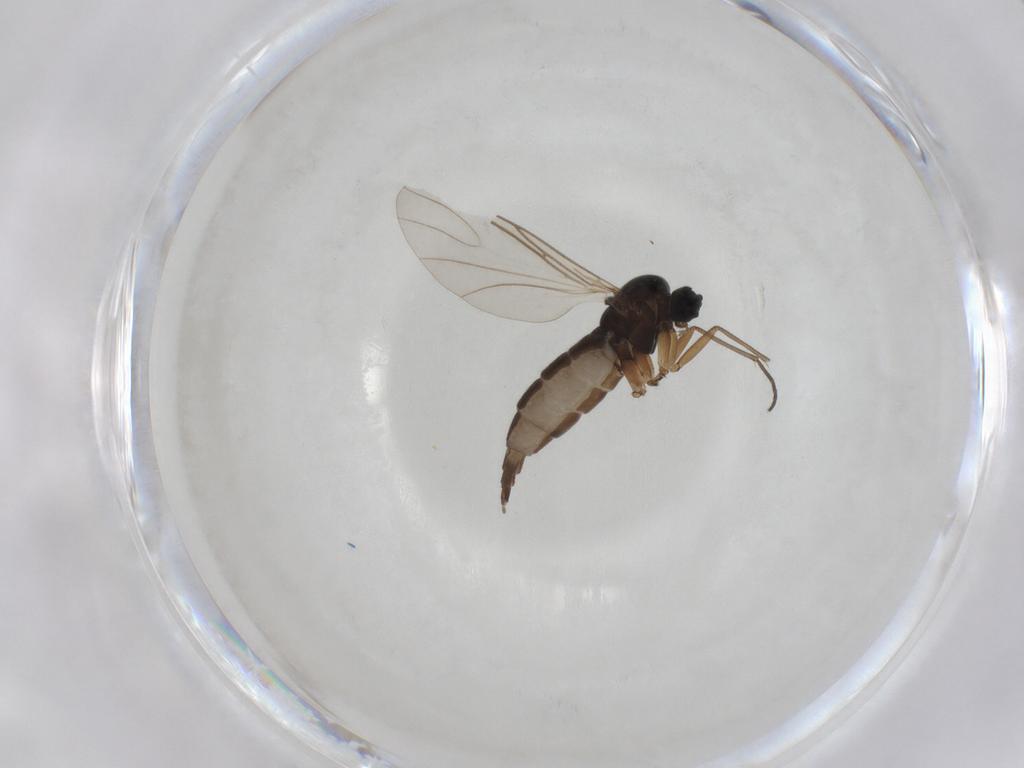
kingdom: Animalia
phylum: Arthropoda
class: Insecta
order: Diptera
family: Sciaridae
